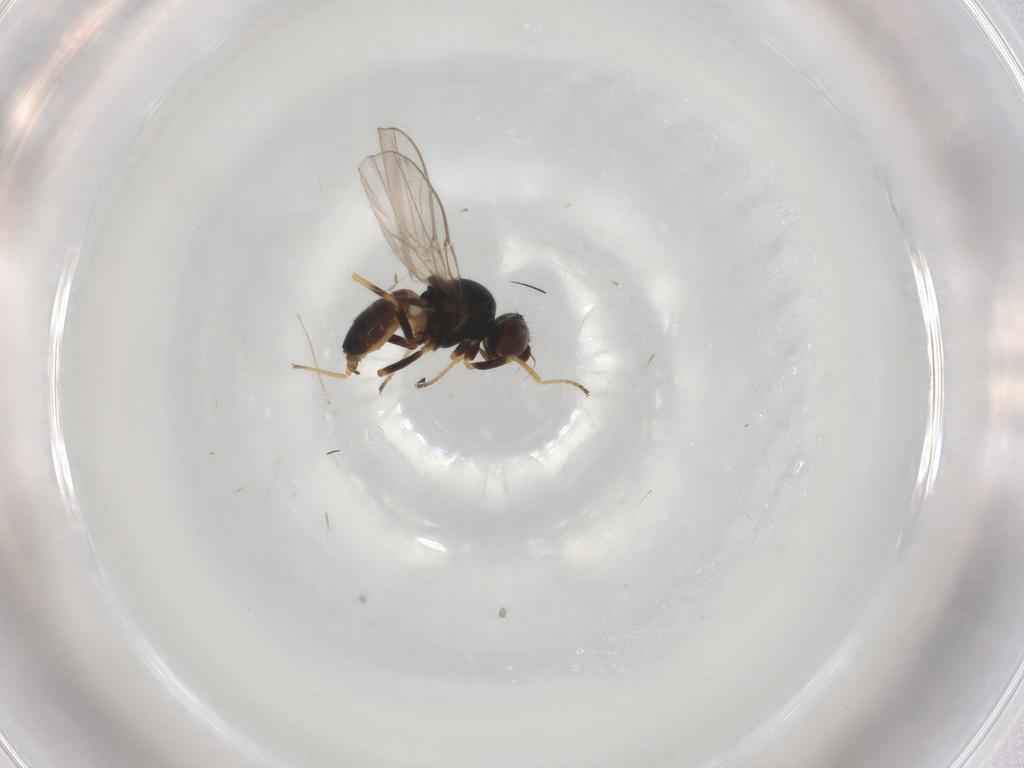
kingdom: Animalia
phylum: Arthropoda
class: Insecta
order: Diptera
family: Chloropidae
